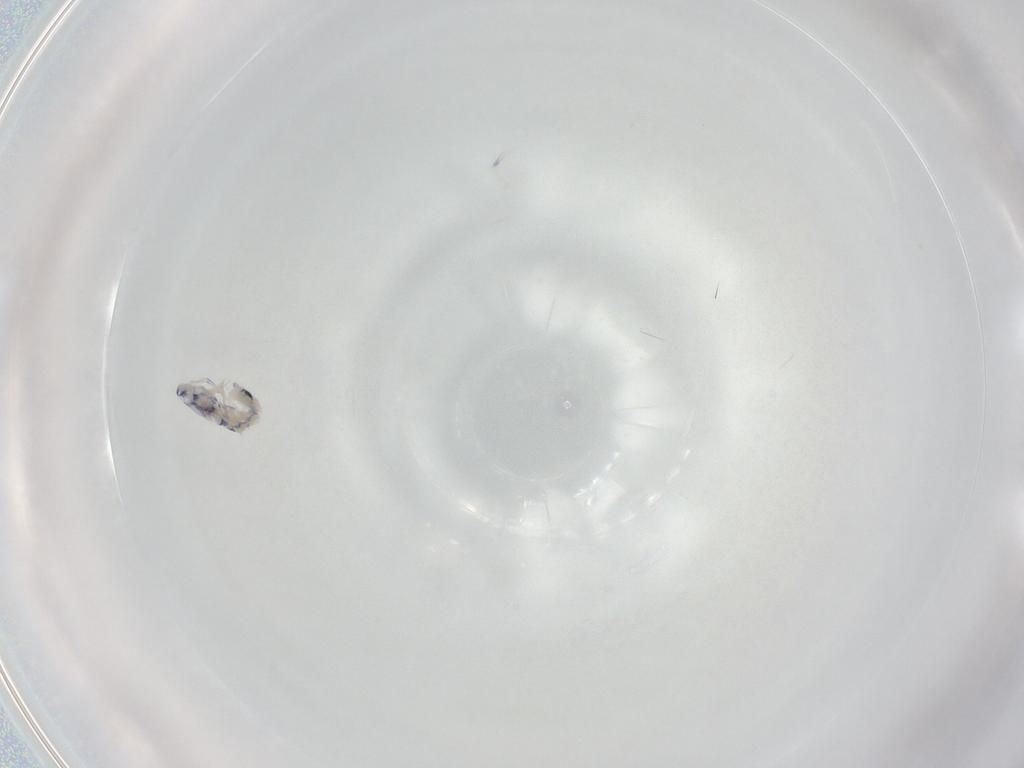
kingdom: Animalia
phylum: Arthropoda
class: Collembola
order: Entomobryomorpha
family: Entomobryidae
